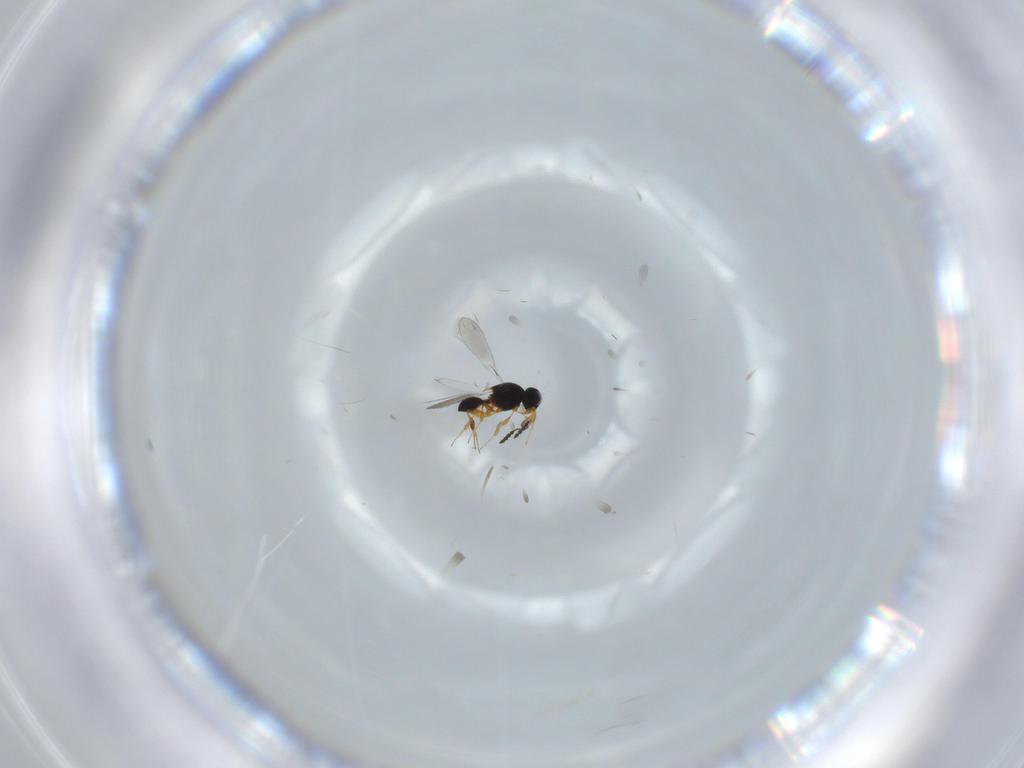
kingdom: Animalia
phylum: Arthropoda
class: Insecta
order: Hymenoptera
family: Platygastridae
